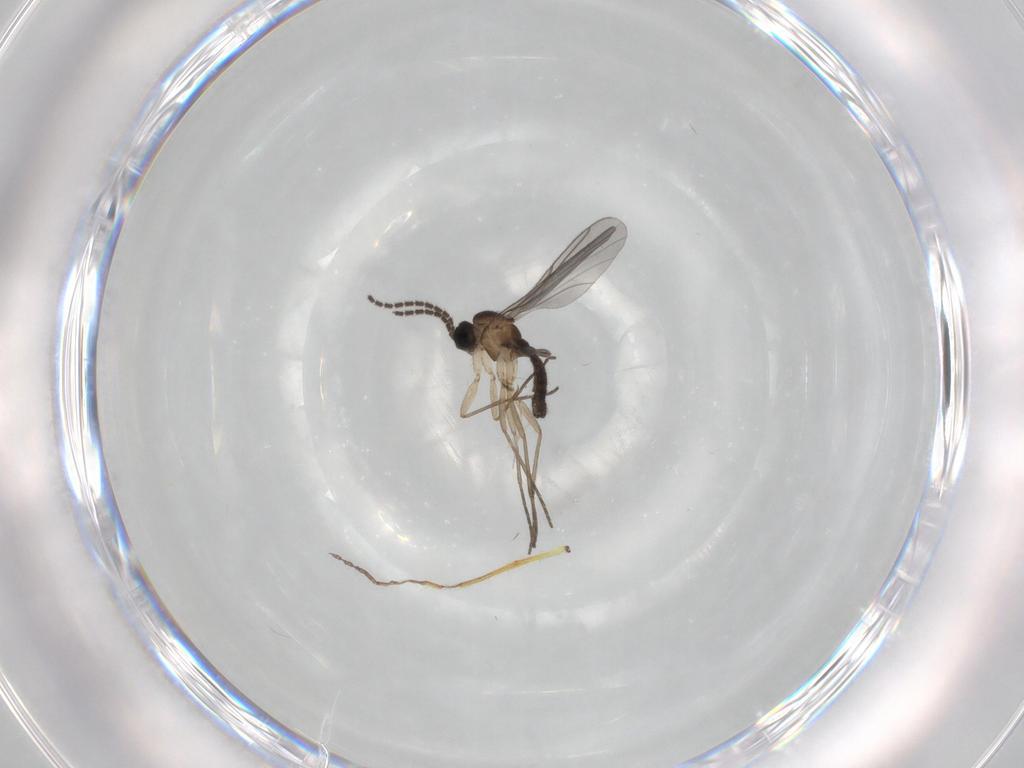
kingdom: Animalia
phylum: Arthropoda
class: Insecta
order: Diptera
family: Sciaridae
